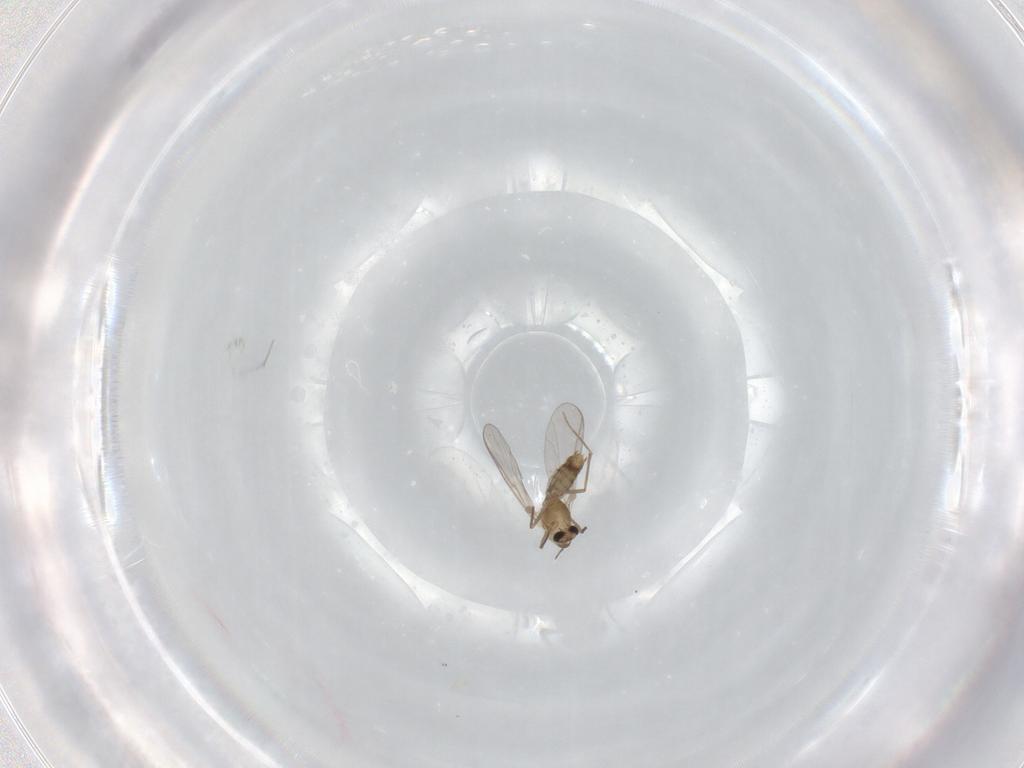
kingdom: Animalia
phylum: Arthropoda
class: Insecta
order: Diptera
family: Chironomidae
